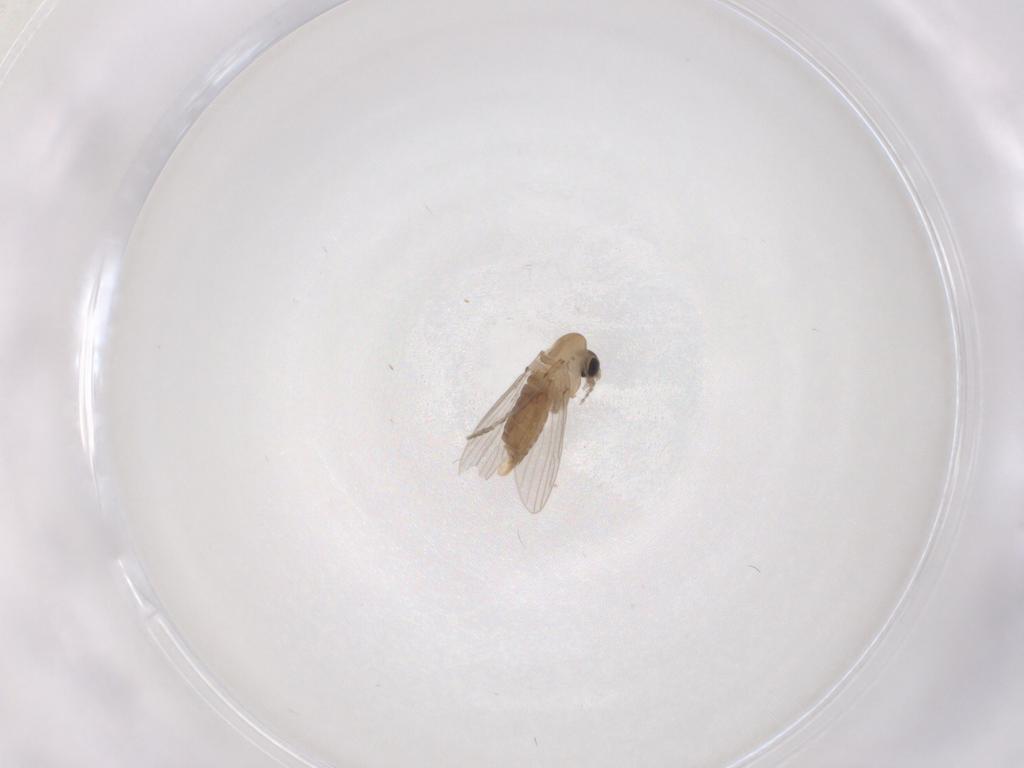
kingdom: Animalia
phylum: Arthropoda
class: Insecta
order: Diptera
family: Psychodidae
